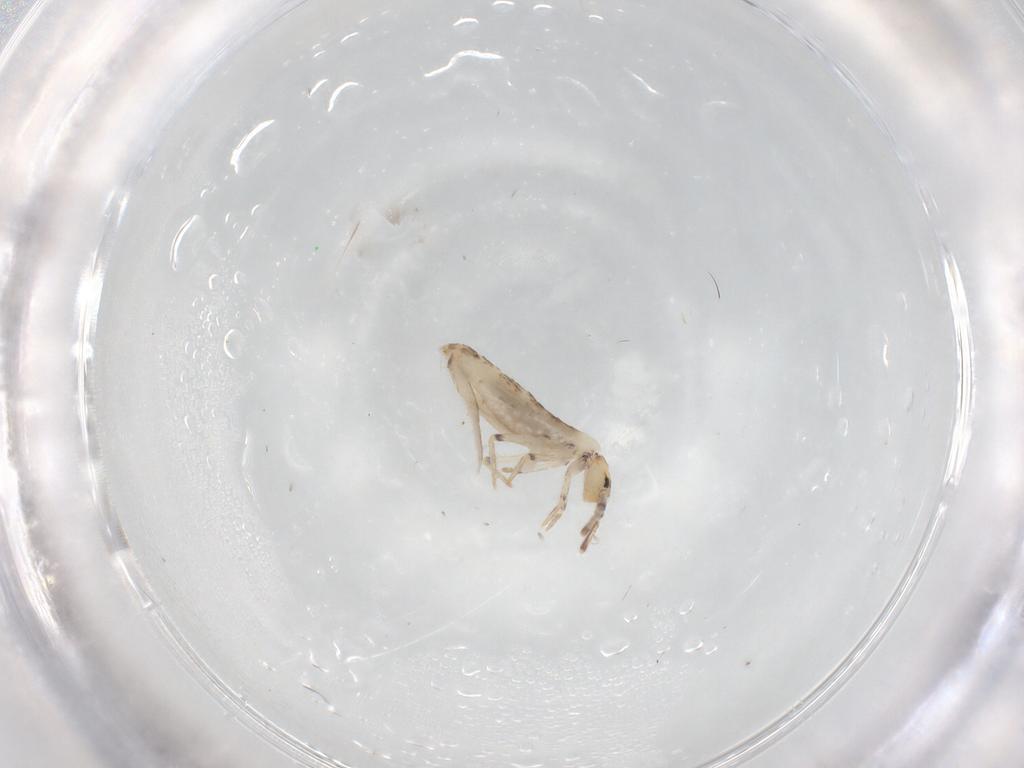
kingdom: Animalia
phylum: Arthropoda
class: Collembola
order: Entomobryomorpha
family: Entomobryidae
